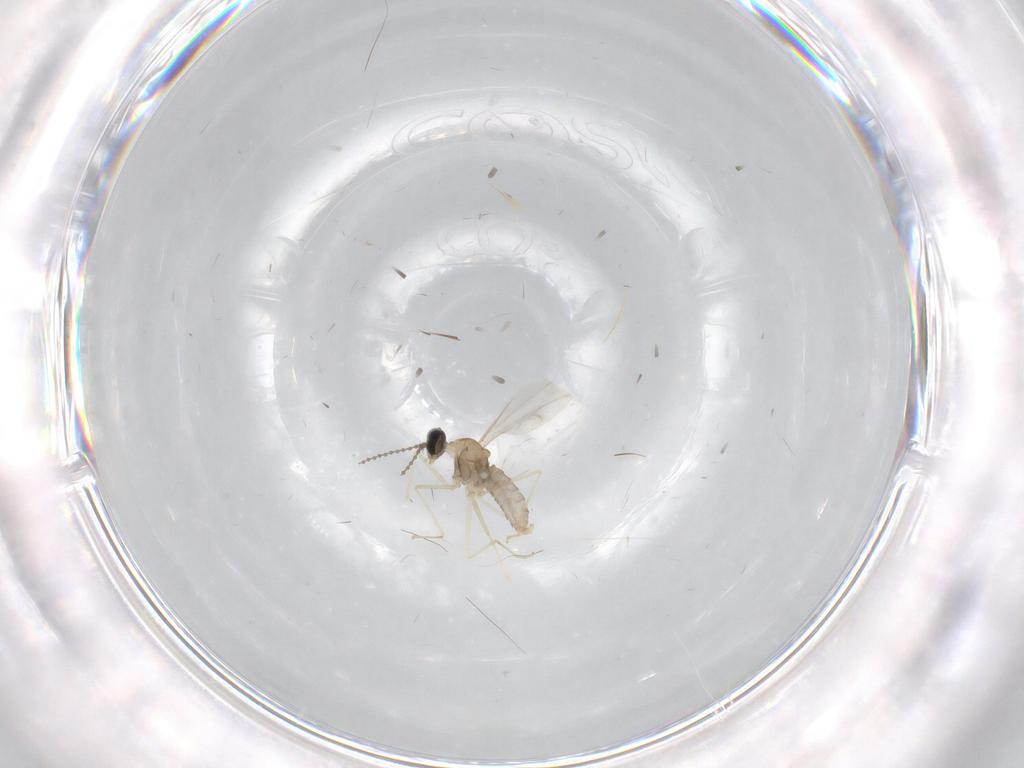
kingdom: Animalia
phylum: Arthropoda
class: Insecta
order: Diptera
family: Cecidomyiidae
